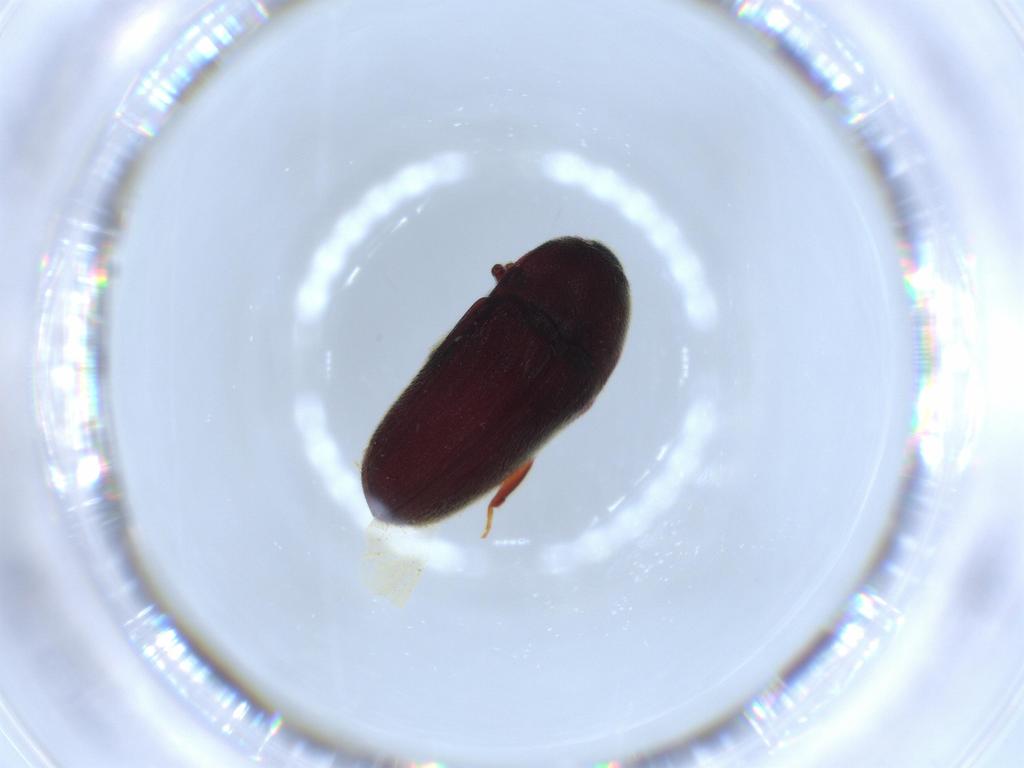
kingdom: Animalia
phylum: Arthropoda
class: Insecta
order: Coleoptera
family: Throscidae
